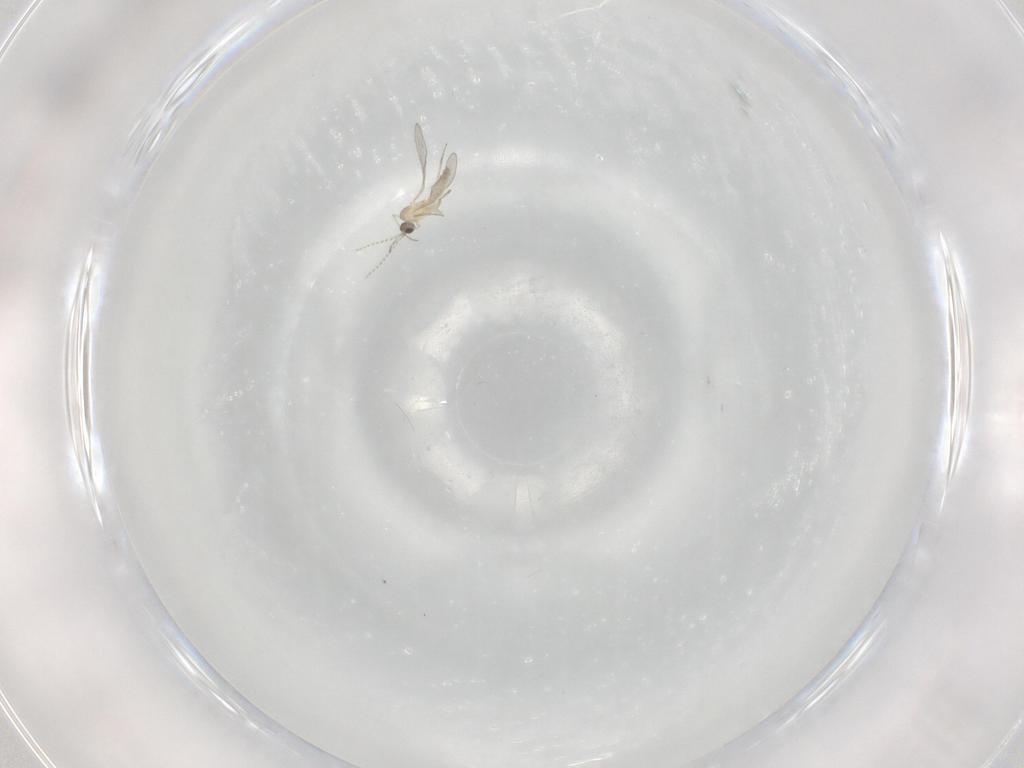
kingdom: Animalia
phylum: Arthropoda
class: Insecta
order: Diptera
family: Cecidomyiidae
